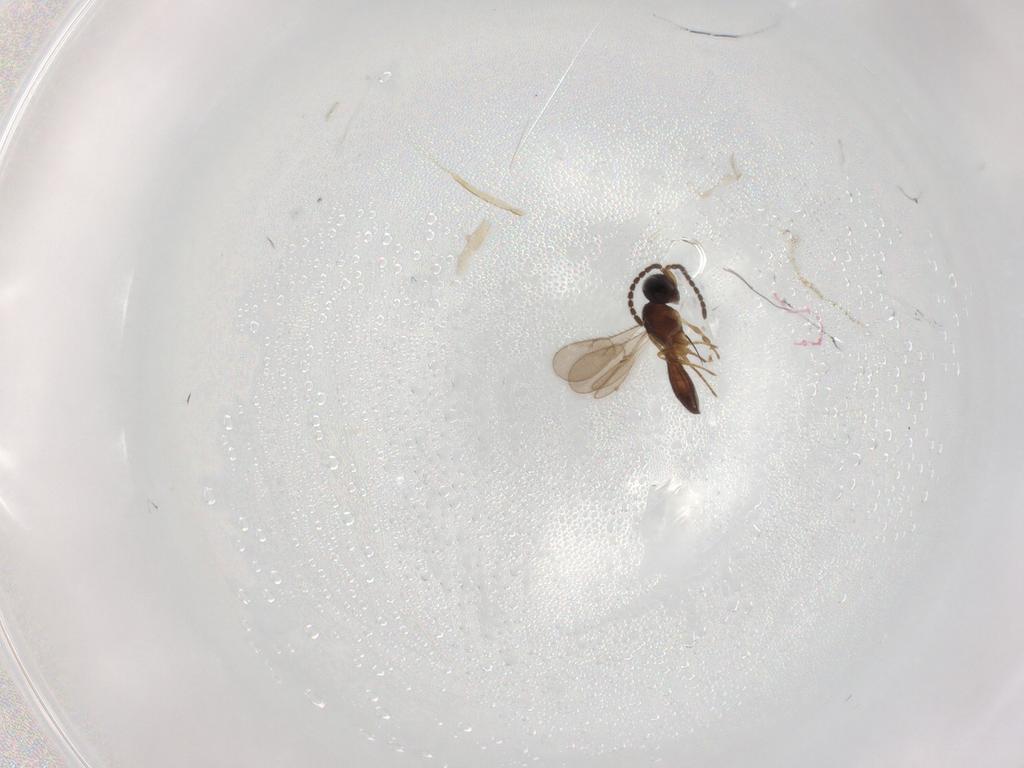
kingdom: Animalia
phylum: Arthropoda
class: Insecta
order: Hymenoptera
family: Scelionidae
